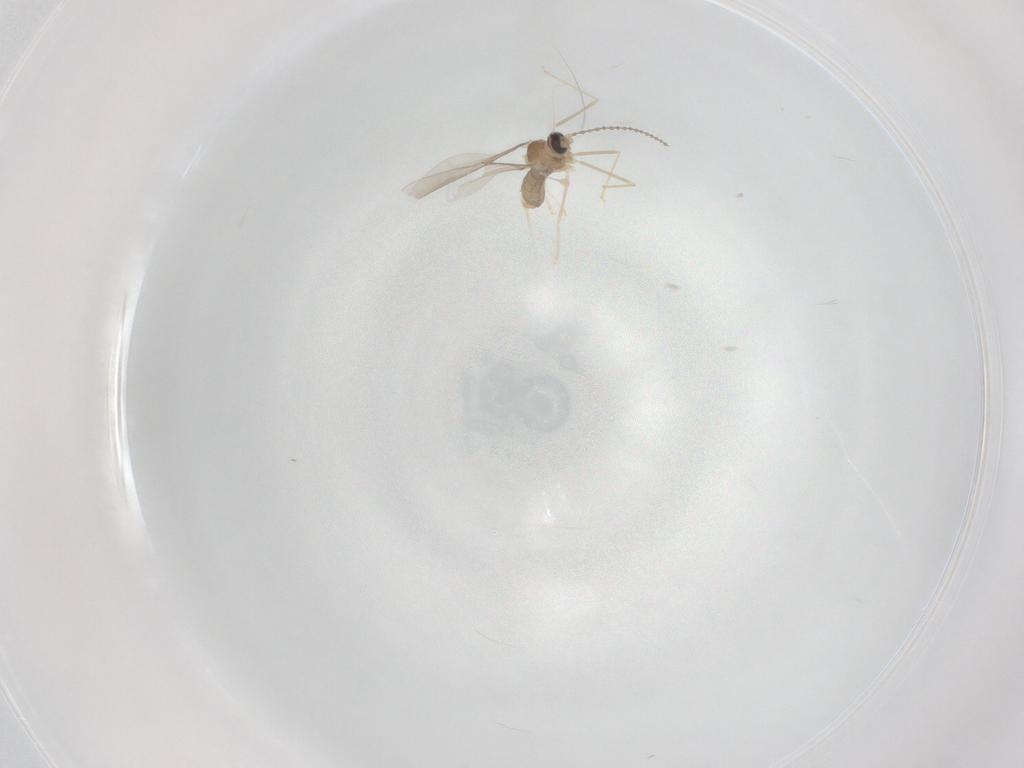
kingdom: Animalia
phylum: Arthropoda
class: Insecta
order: Diptera
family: Cecidomyiidae
